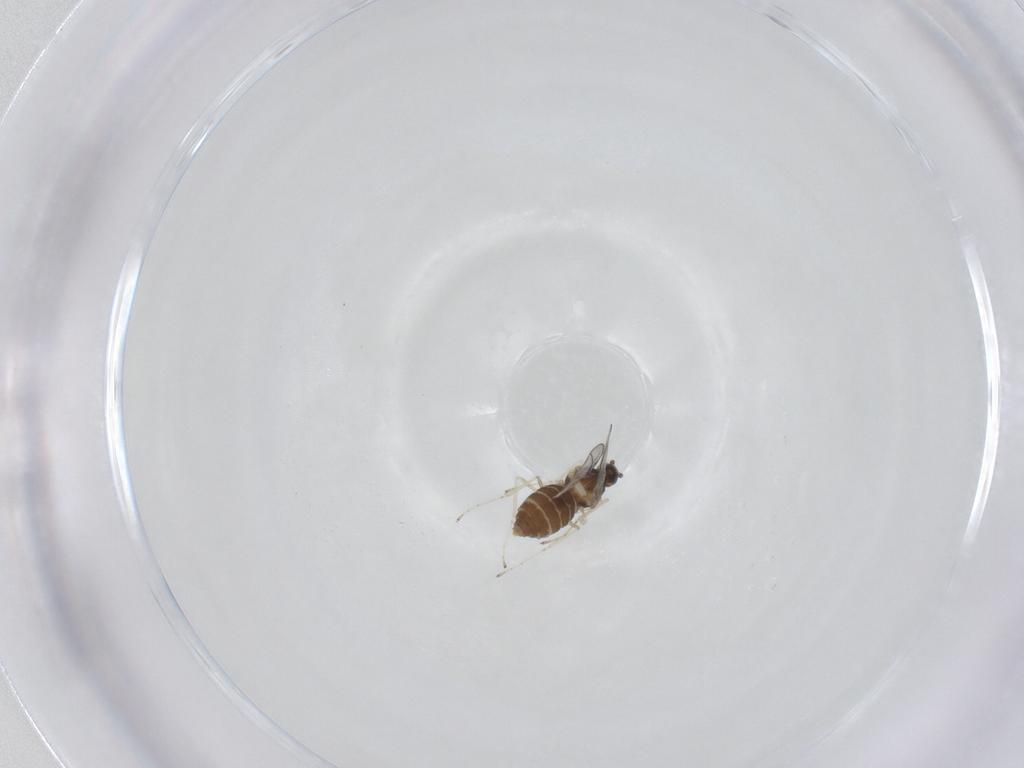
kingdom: Animalia
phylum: Arthropoda
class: Insecta
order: Diptera
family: Cecidomyiidae
